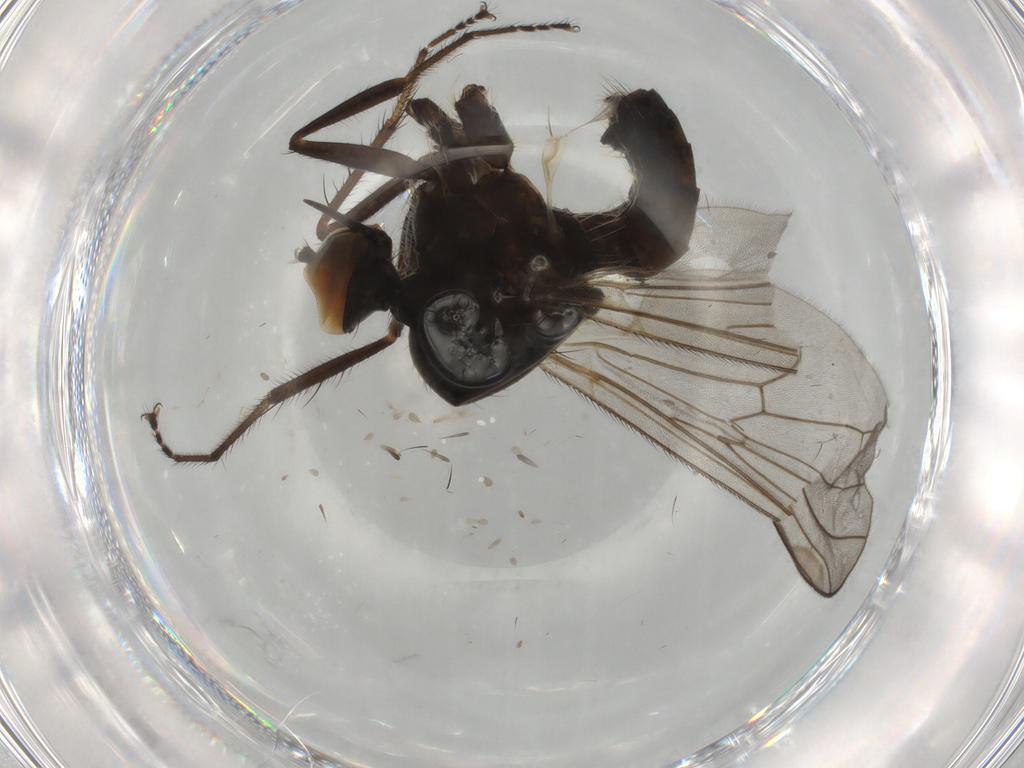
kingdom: Animalia
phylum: Arthropoda
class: Insecta
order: Diptera
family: Hybotidae
